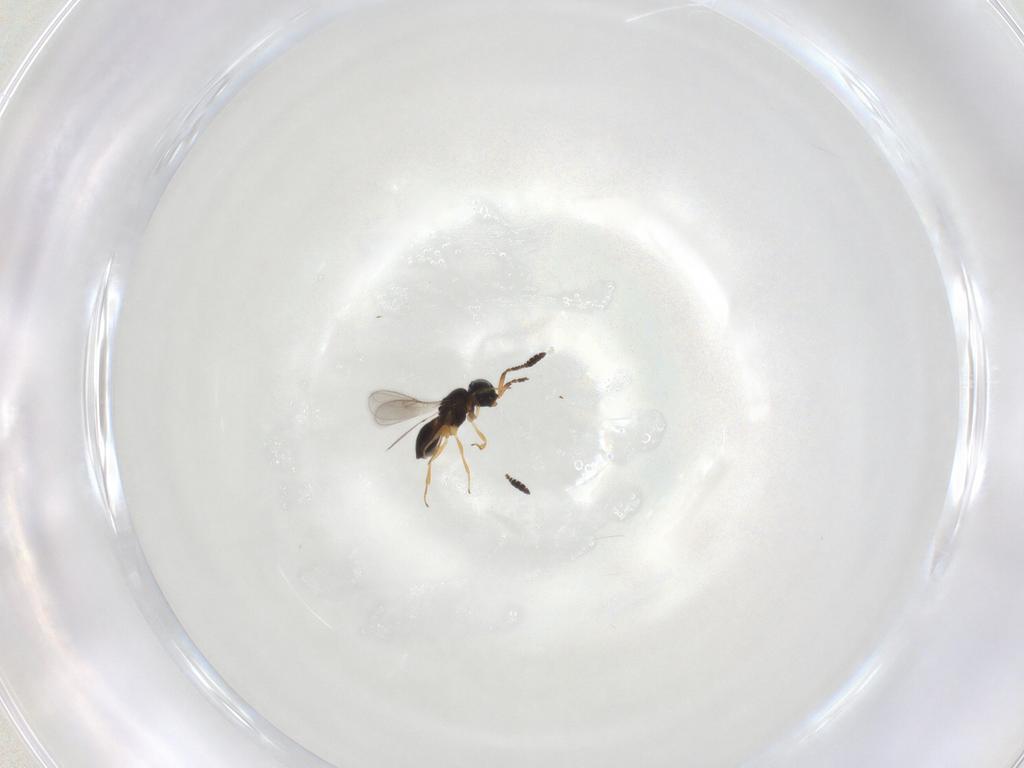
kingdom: Animalia
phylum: Arthropoda
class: Insecta
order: Hymenoptera
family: Scelionidae
